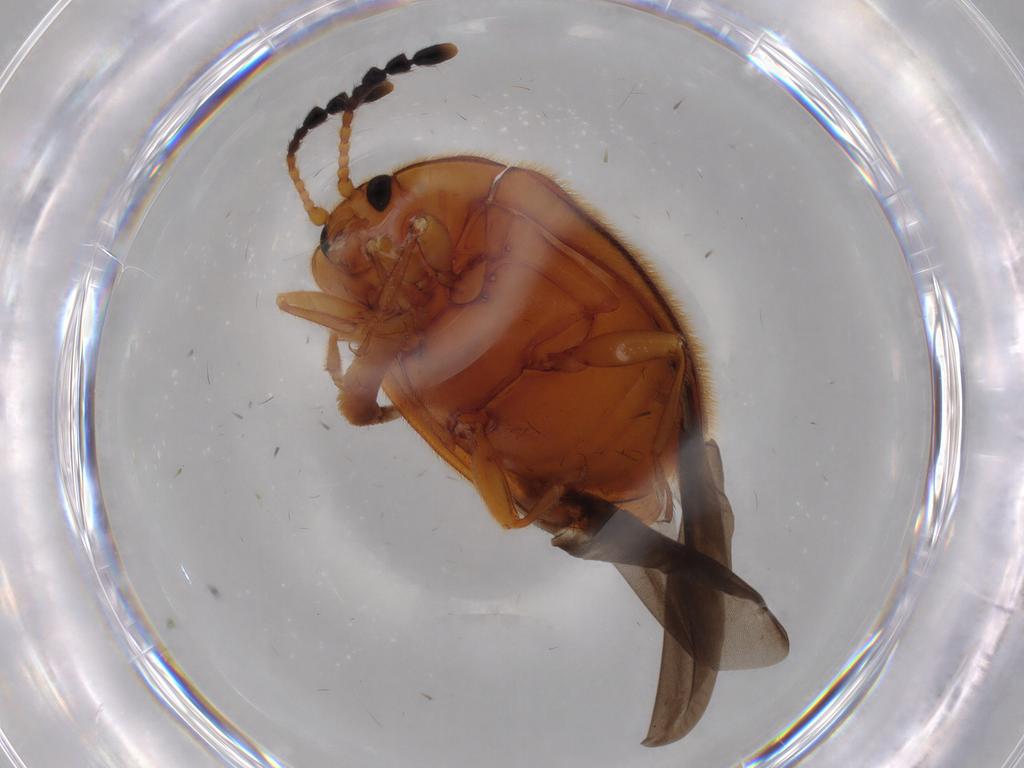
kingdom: Animalia
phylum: Arthropoda
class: Insecta
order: Coleoptera
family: Endomychidae
